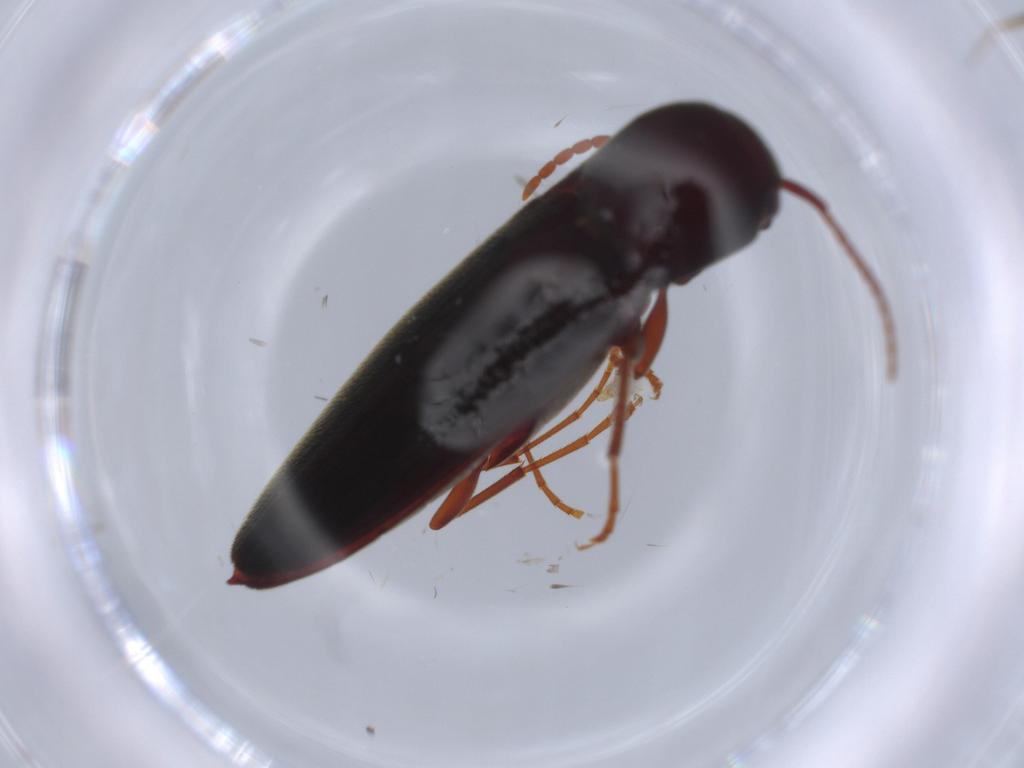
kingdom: Animalia
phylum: Arthropoda
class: Insecta
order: Coleoptera
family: Eucnemidae
